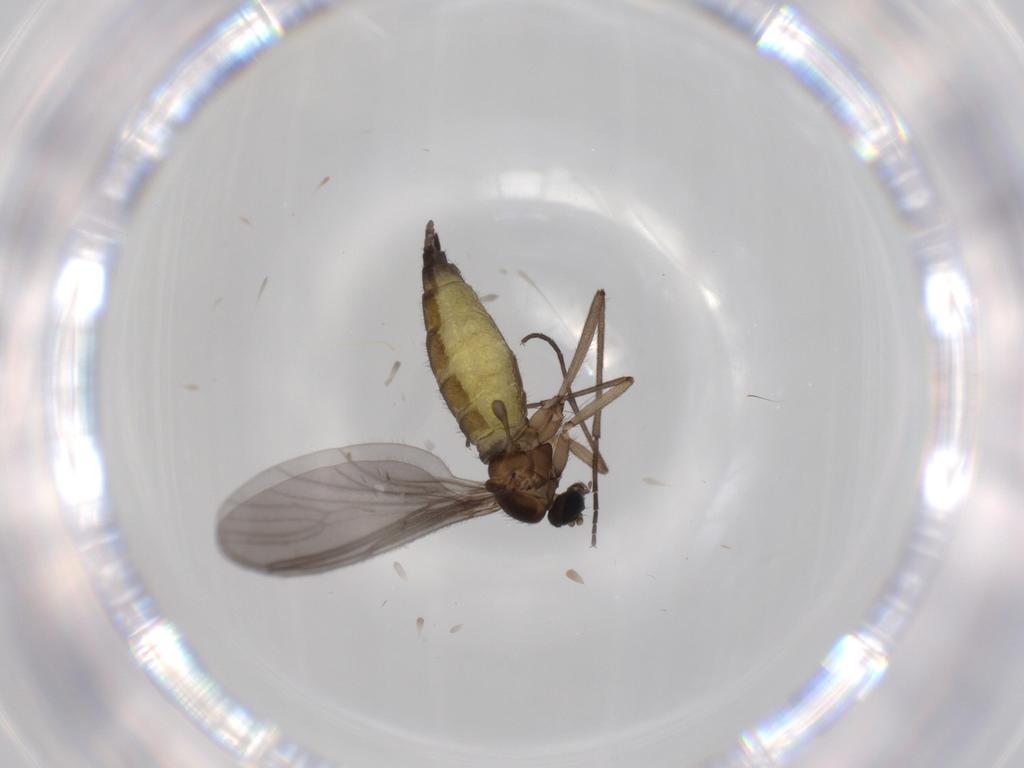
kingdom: Animalia
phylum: Arthropoda
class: Insecta
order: Diptera
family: Sciaridae
